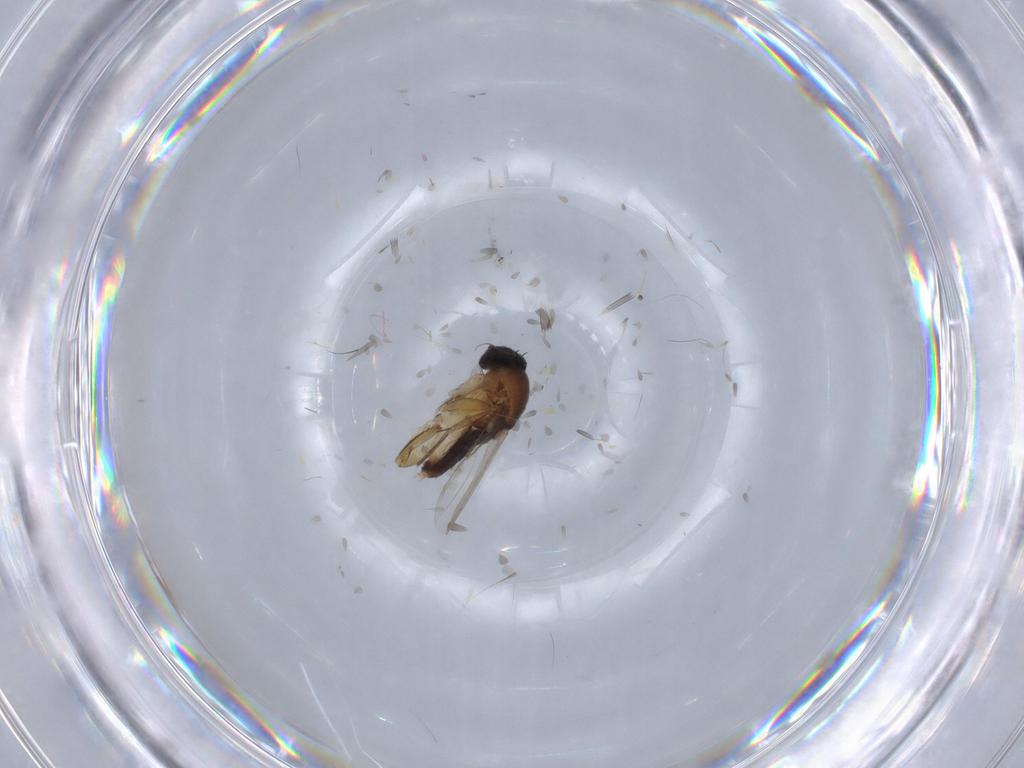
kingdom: Animalia
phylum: Arthropoda
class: Insecta
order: Diptera
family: Phoridae
